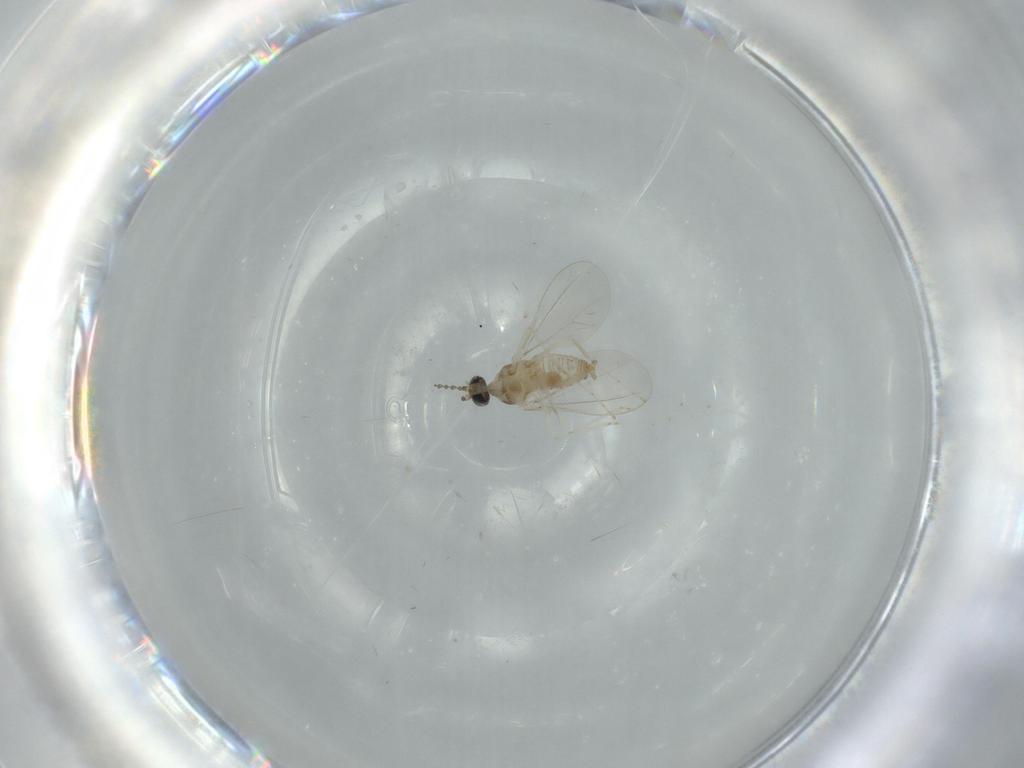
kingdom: Animalia
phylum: Arthropoda
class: Insecta
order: Diptera
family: Cecidomyiidae
